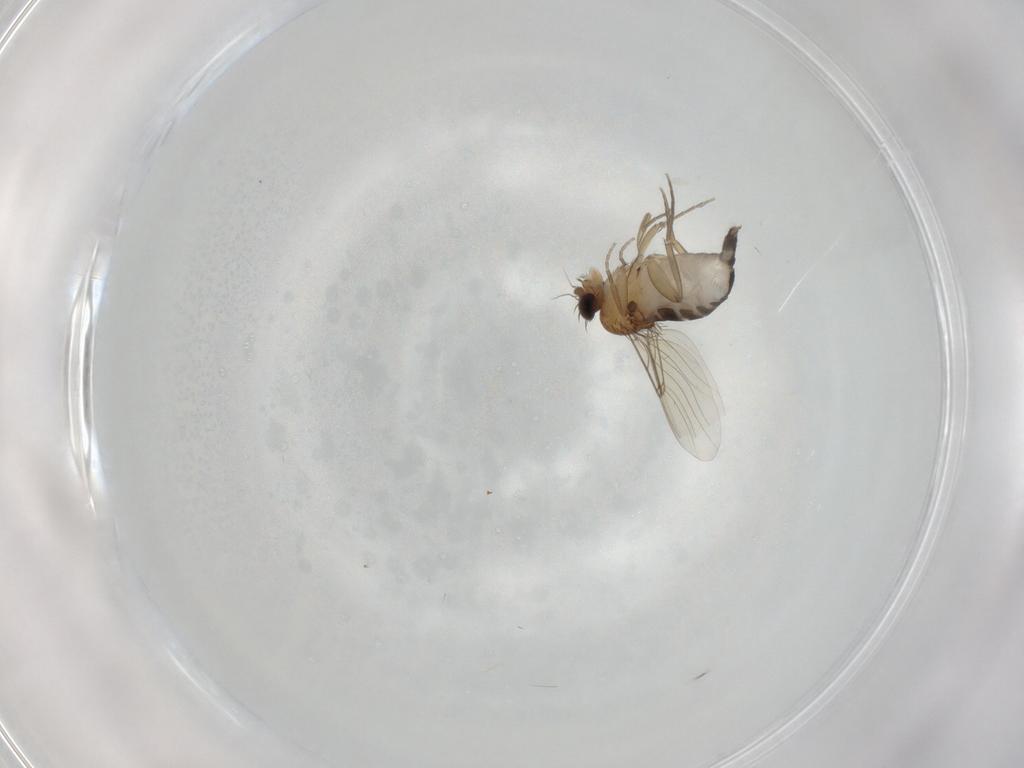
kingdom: Animalia
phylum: Arthropoda
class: Insecta
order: Diptera
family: Phoridae
